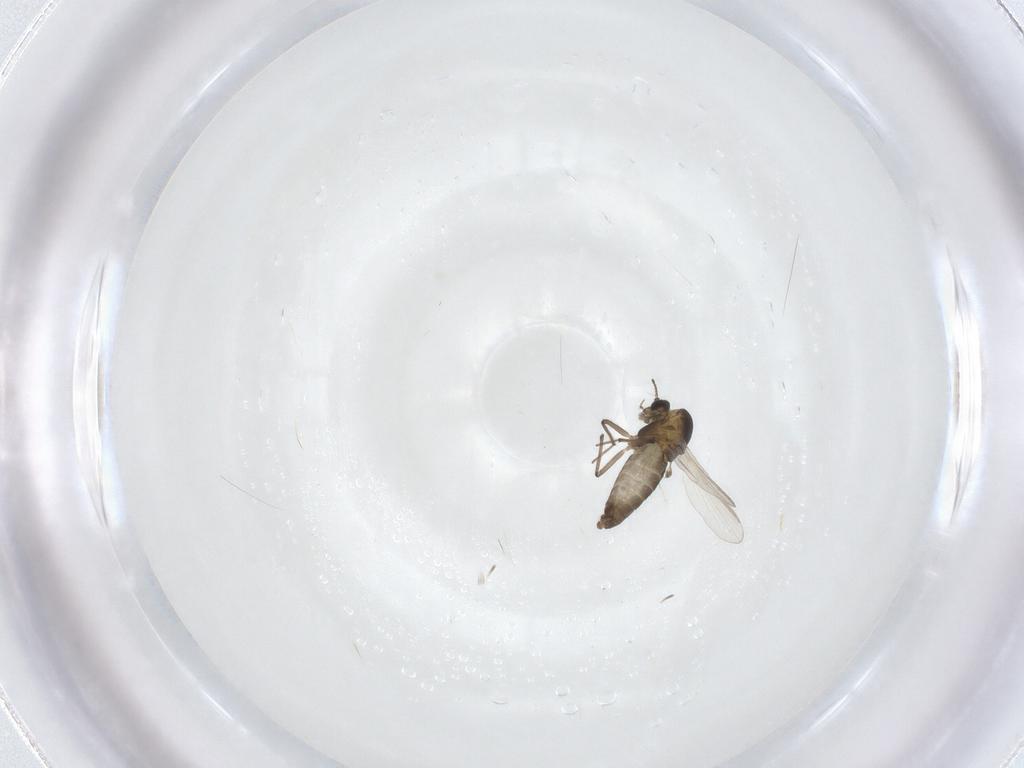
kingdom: Animalia
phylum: Arthropoda
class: Insecta
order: Diptera
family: Chironomidae
